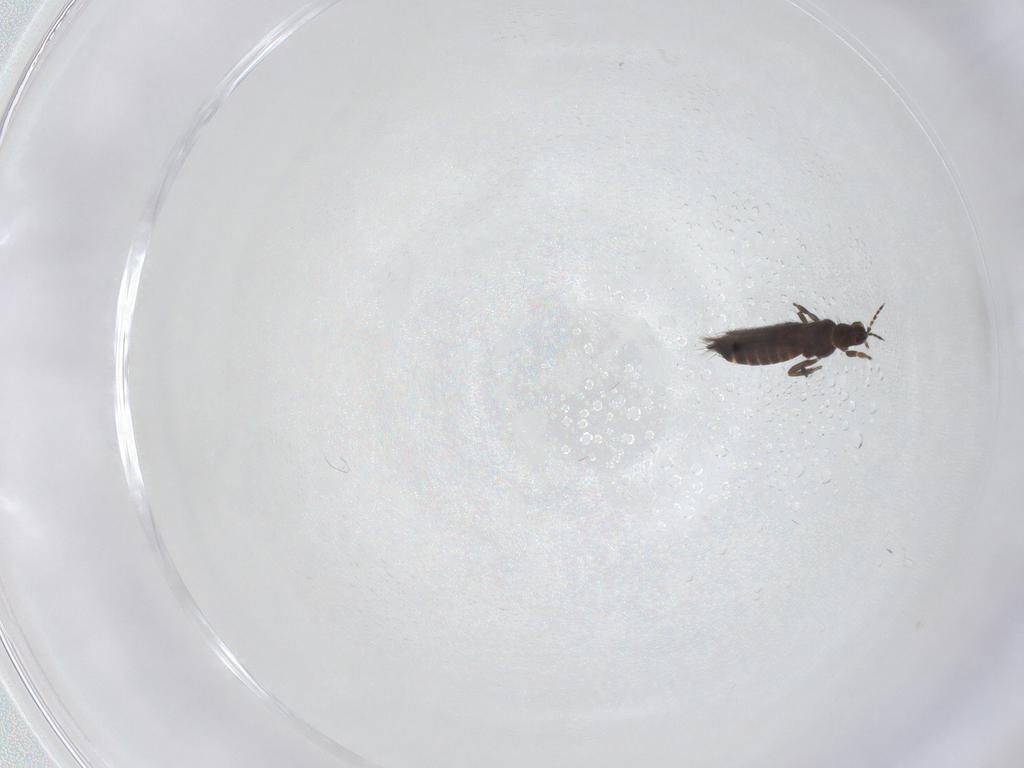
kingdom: Animalia
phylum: Arthropoda
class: Insecta
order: Thysanoptera
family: Thripidae
